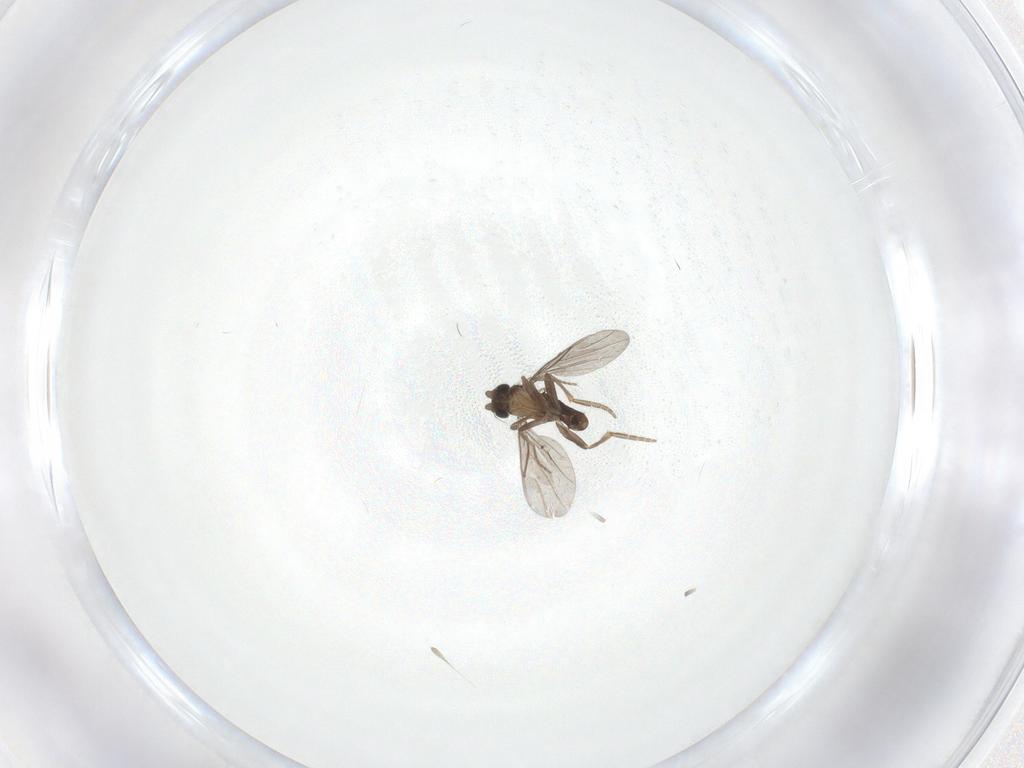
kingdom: Animalia
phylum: Arthropoda
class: Insecta
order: Diptera
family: Phoridae
